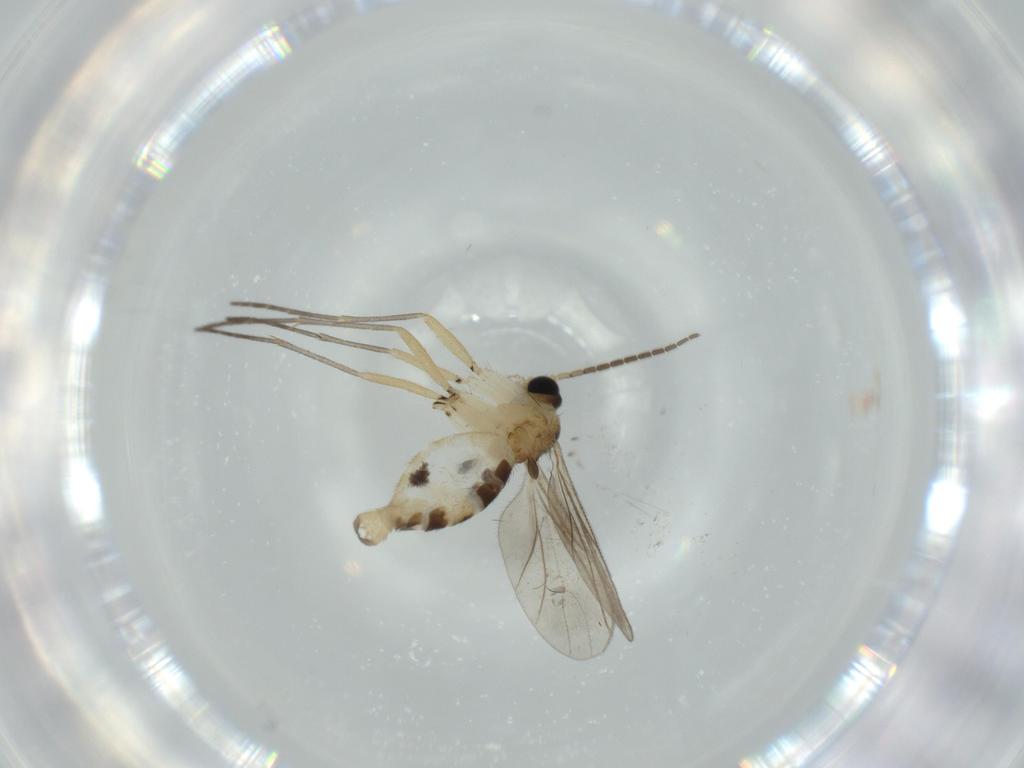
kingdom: Animalia
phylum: Arthropoda
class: Insecta
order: Diptera
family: Sciaridae
